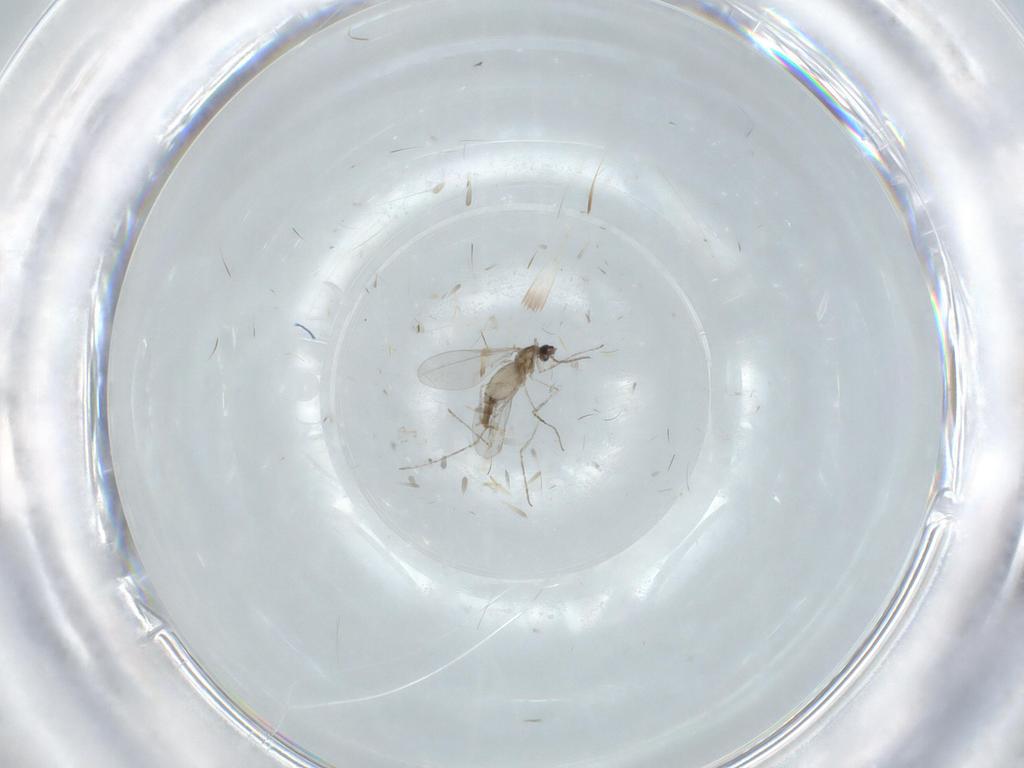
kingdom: Animalia
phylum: Arthropoda
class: Insecta
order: Diptera
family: Cecidomyiidae
